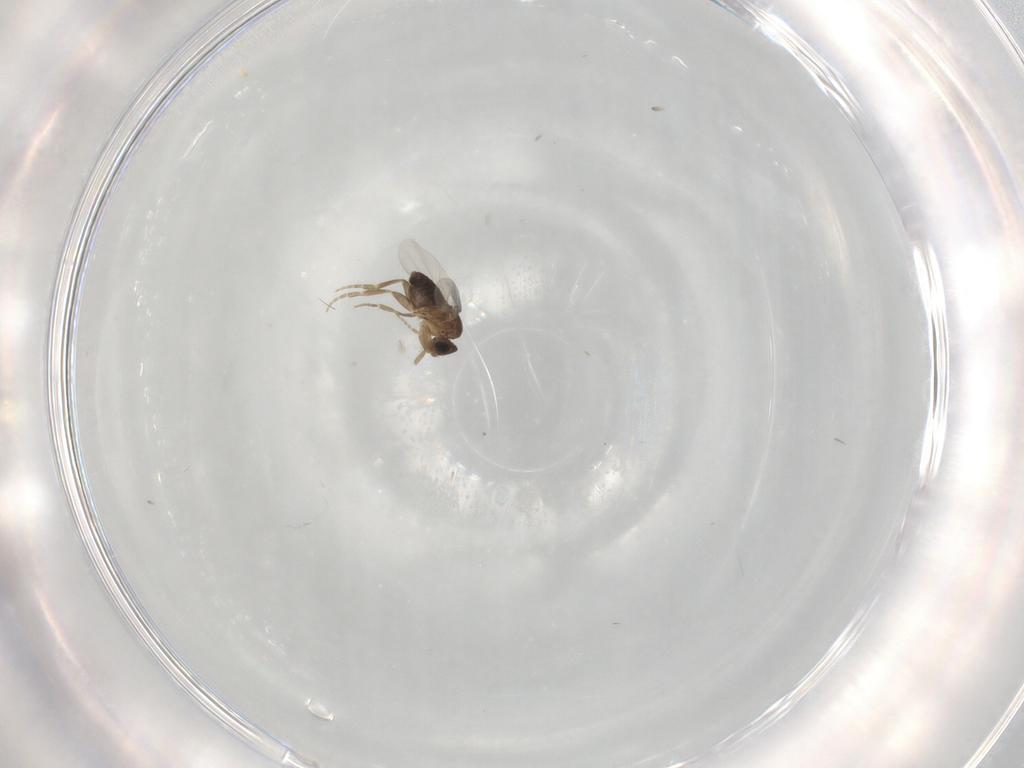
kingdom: Animalia
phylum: Arthropoda
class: Insecta
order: Diptera
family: Phoridae
